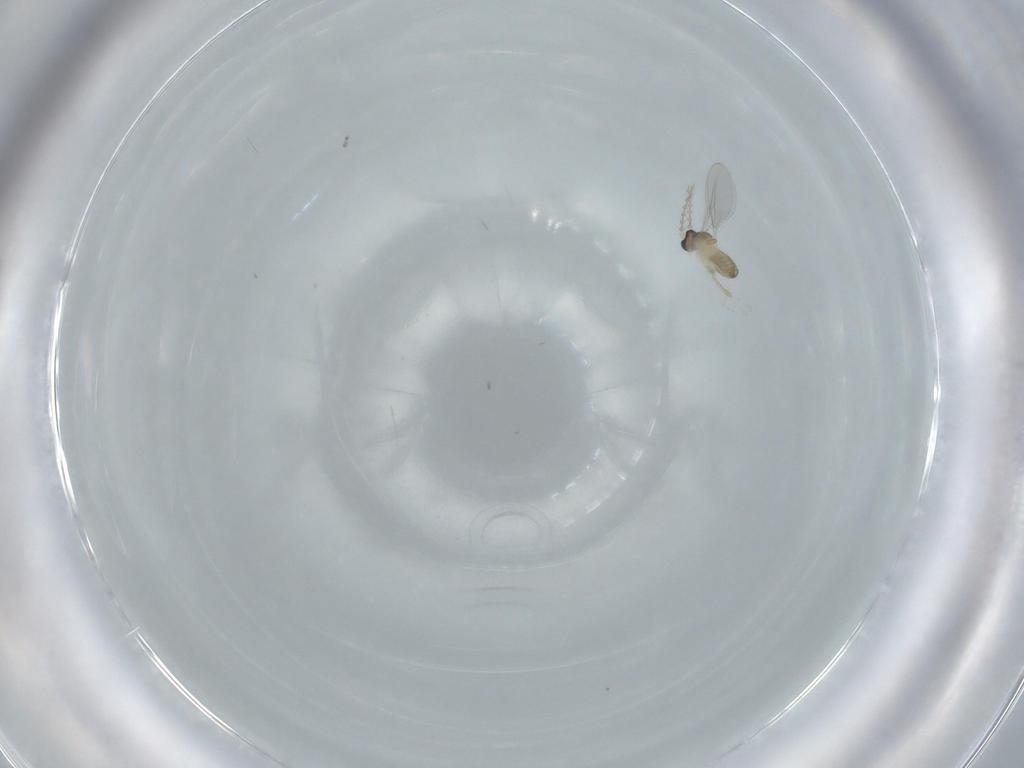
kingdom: Animalia
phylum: Arthropoda
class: Insecta
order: Diptera
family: Cecidomyiidae
